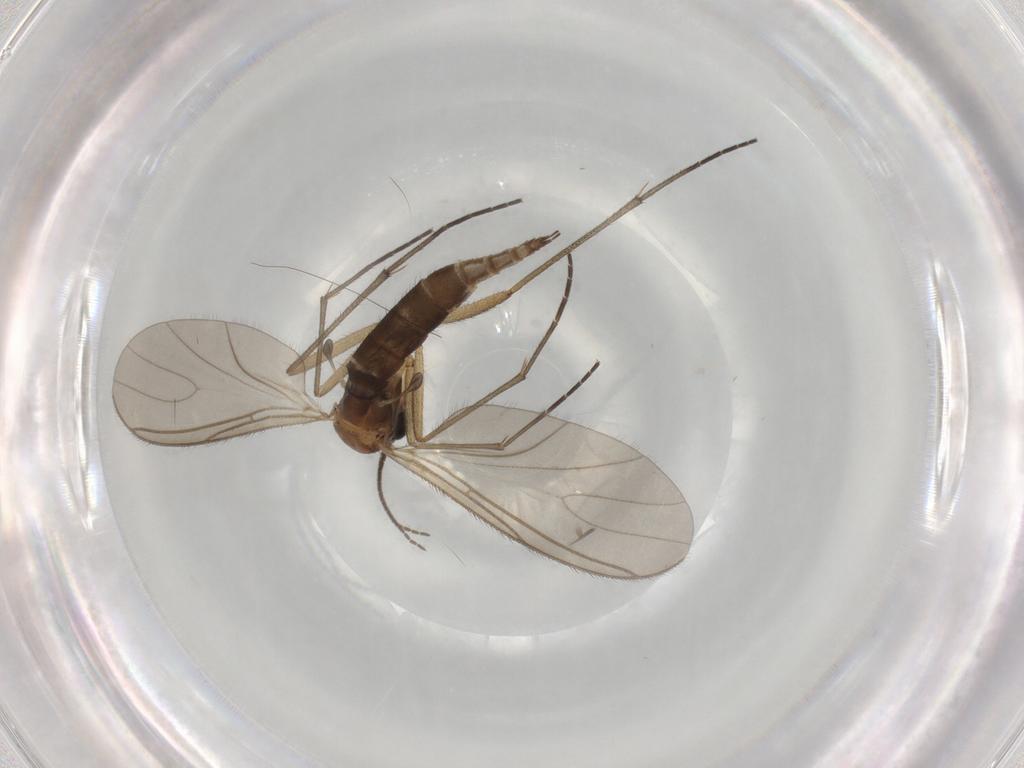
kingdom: Animalia
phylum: Arthropoda
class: Insecta
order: Diptera
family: Sciaridae
